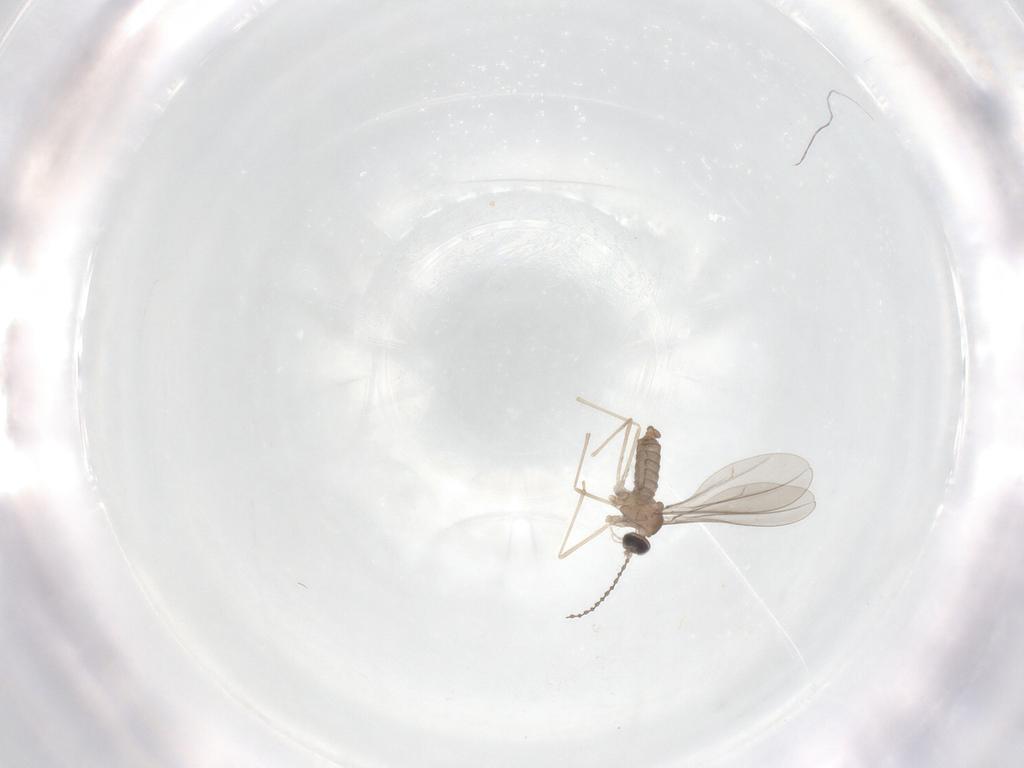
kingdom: Animalia
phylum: Arthropoda
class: Insecta
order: Diptera
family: Cecidomyiidae
